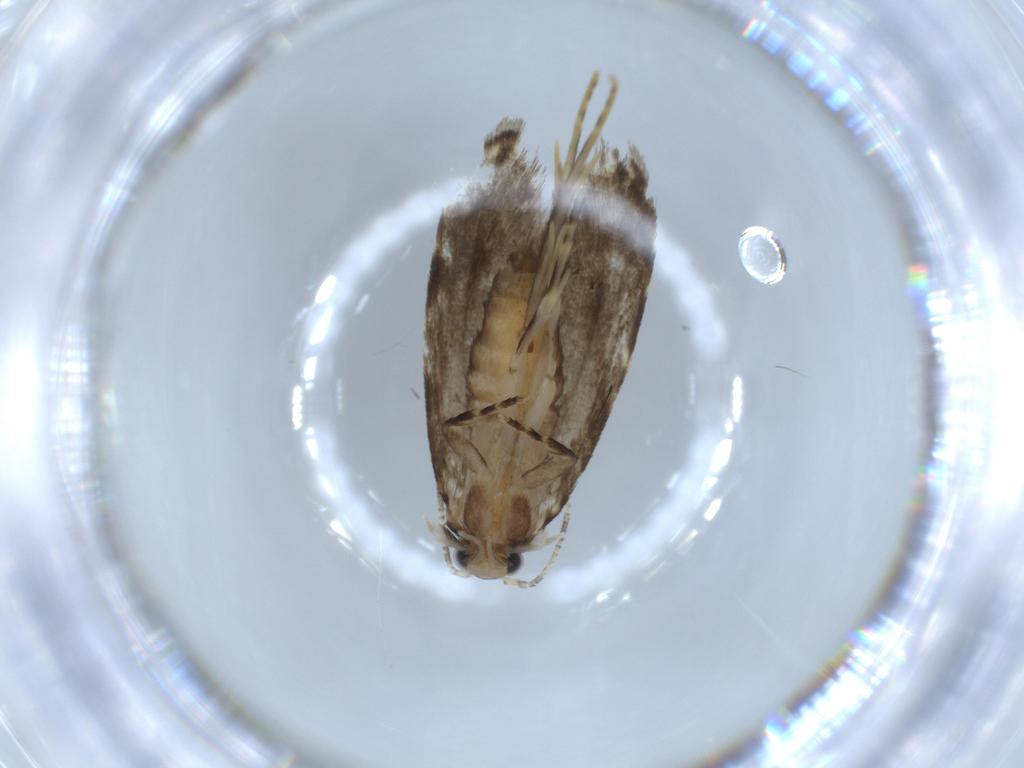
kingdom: Animalia
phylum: Arthropoda
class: Insecta
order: Lepidoptera
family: Tineidae
